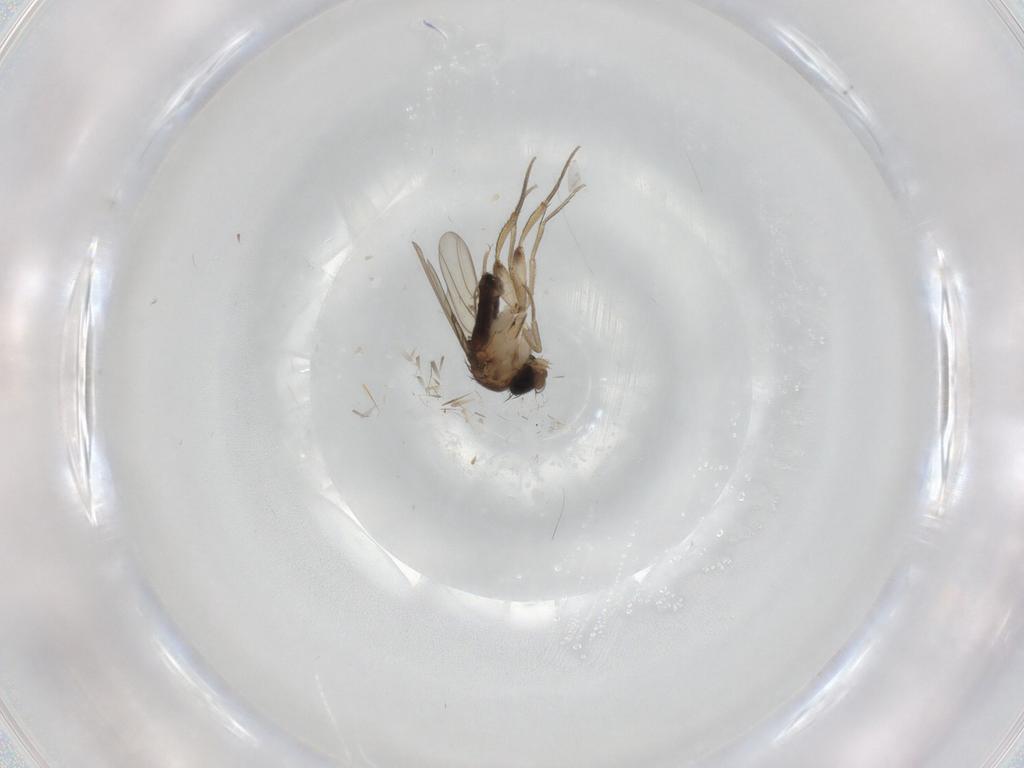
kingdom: Animalia
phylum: Arthropoda
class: Insecta
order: Diptera
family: Phoridae
